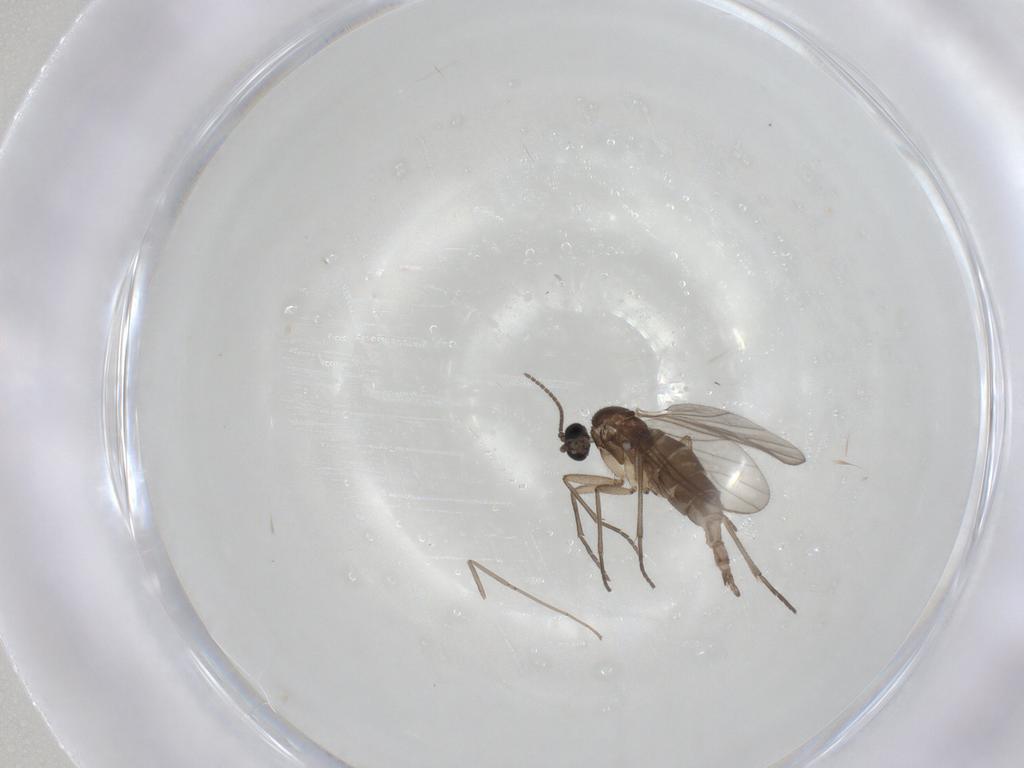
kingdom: Animalia
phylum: Arthropoda
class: Insecta
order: Diptera
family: Sciaridae
